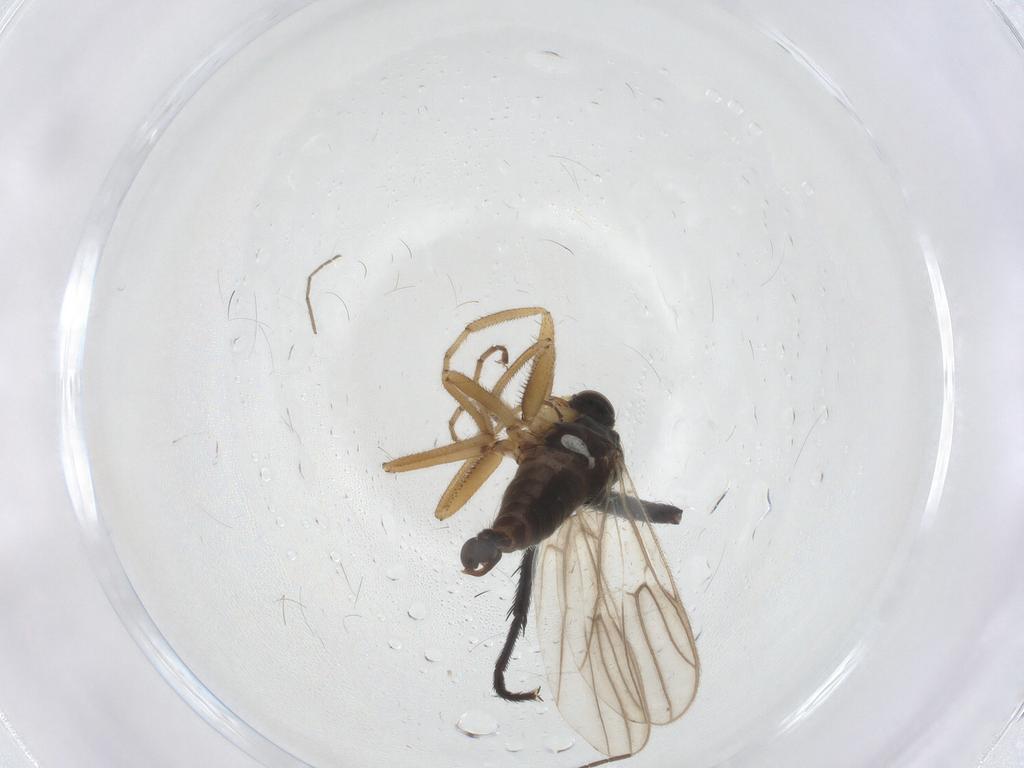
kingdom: Animalia
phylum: Arthropoda
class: Insecta
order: Diptera
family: Hybotidae
